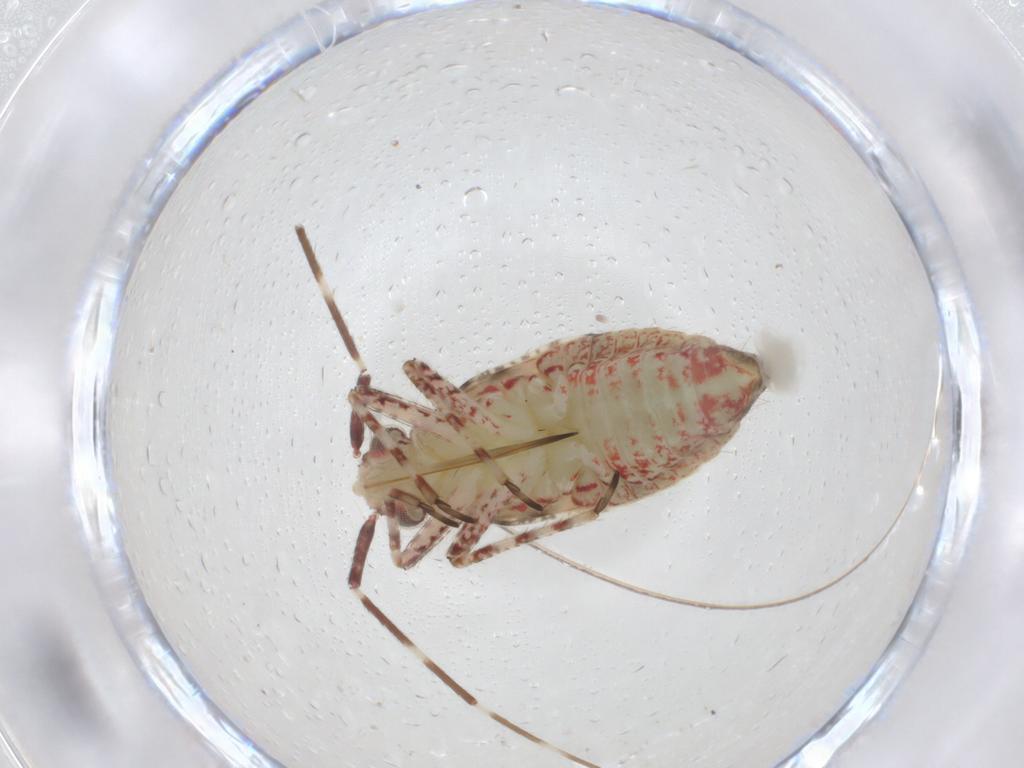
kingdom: Animalia
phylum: Arthropoda
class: Insecta
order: Hemiptera
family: Miridae
